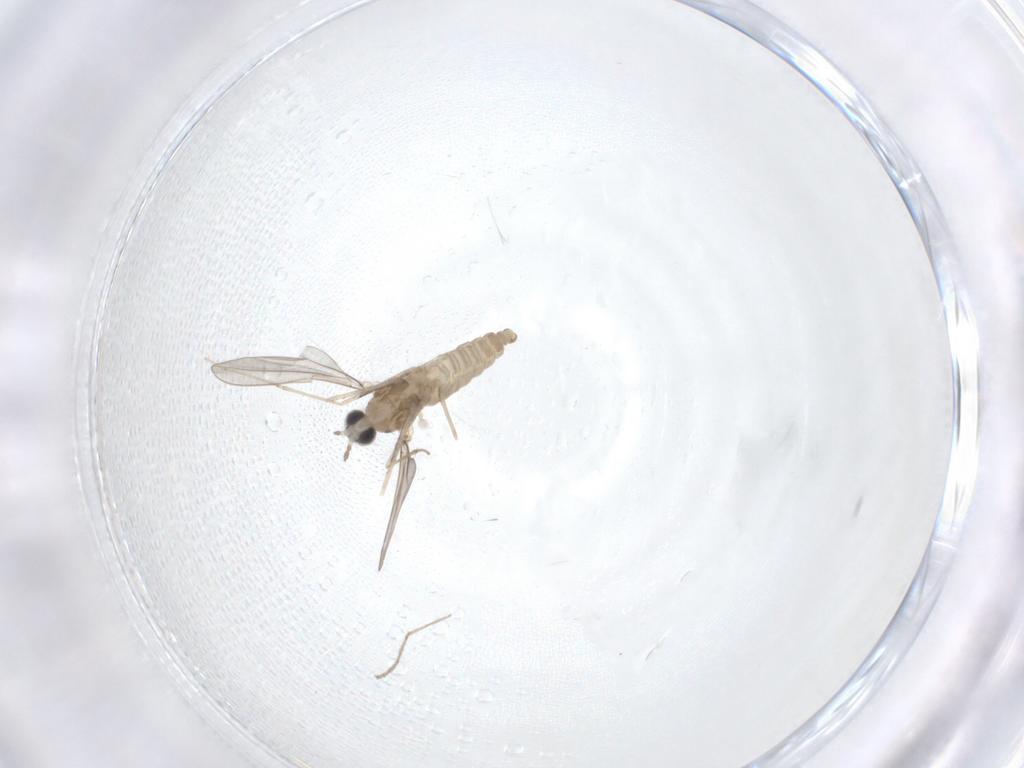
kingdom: Animalia
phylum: Arthropoda
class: Insecta
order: Diptera
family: Cecidomyiidae
